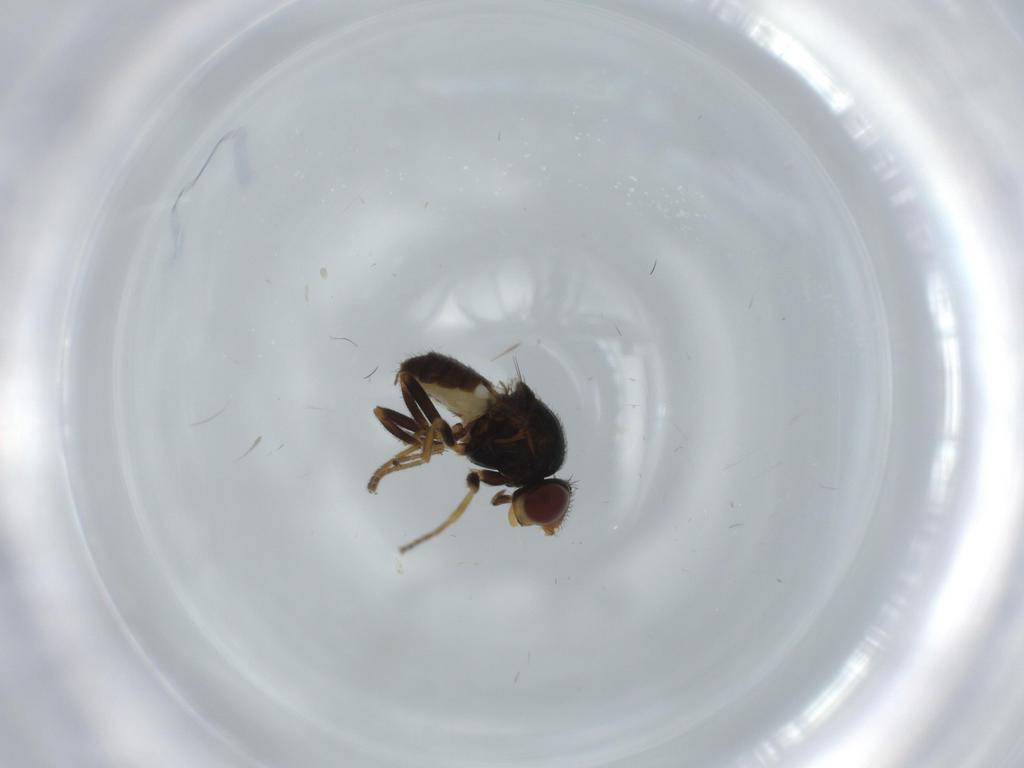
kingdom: Animalia
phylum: Arthropoda
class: Insecta
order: Diptera
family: Chloropidae
